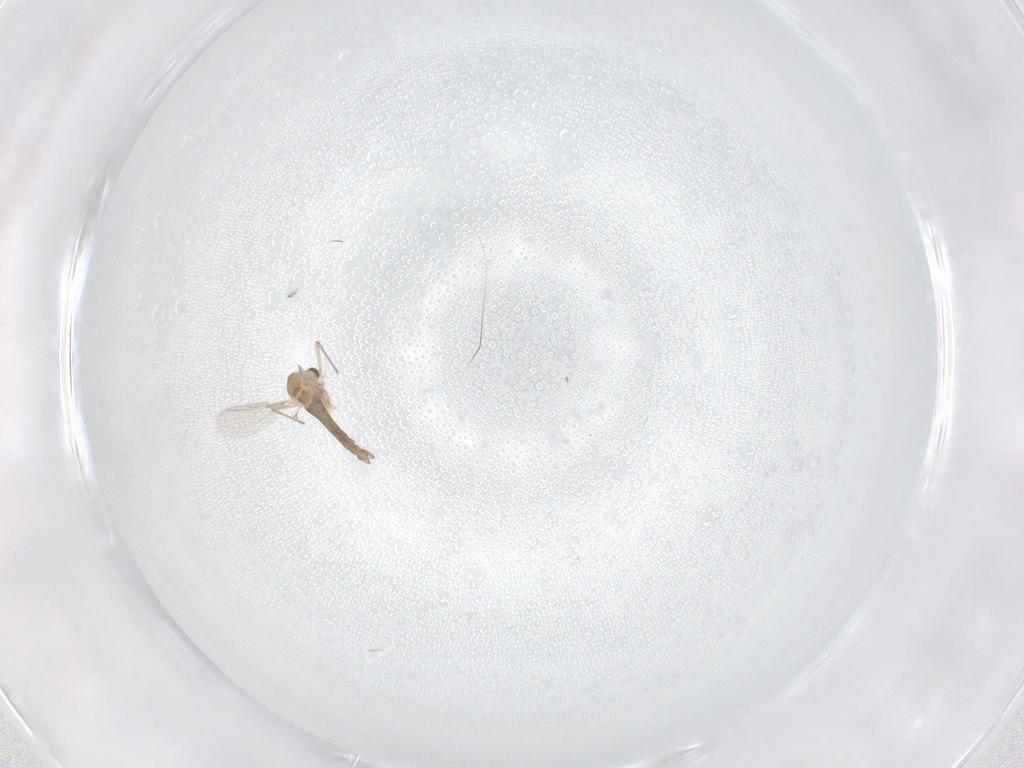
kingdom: Animalia
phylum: Arthropoda
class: Insecta
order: Diptera
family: Chironomidae
